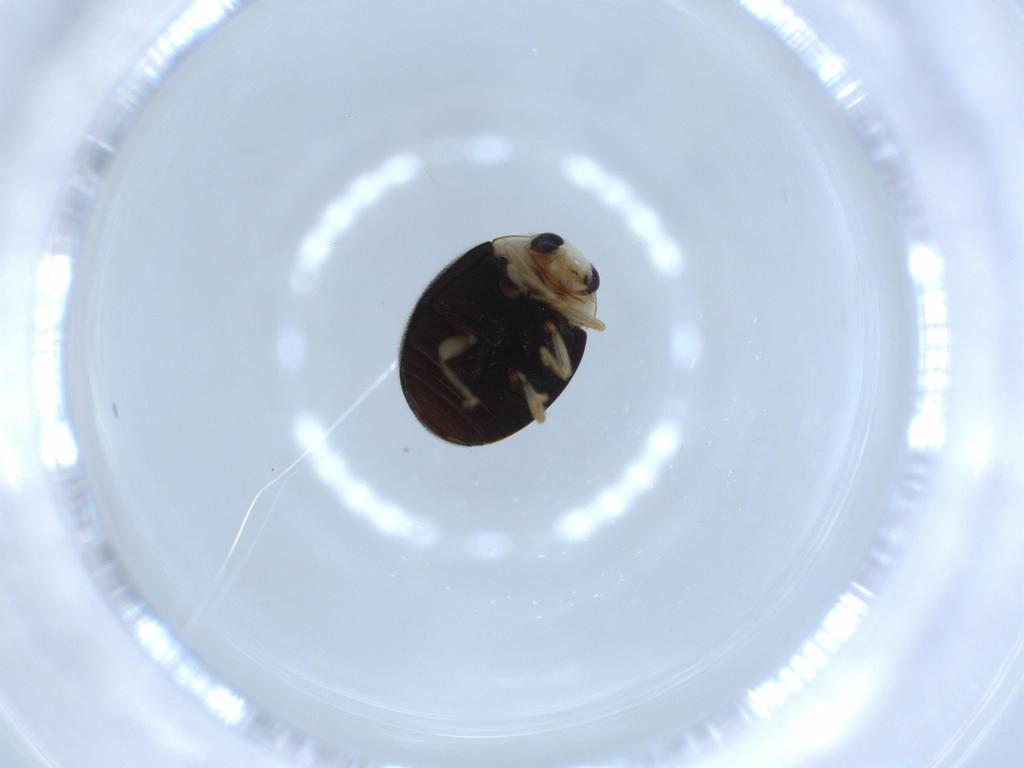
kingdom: Animalia
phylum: Arthropoda
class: Insecta
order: Coleoptera
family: Coccinellidae
